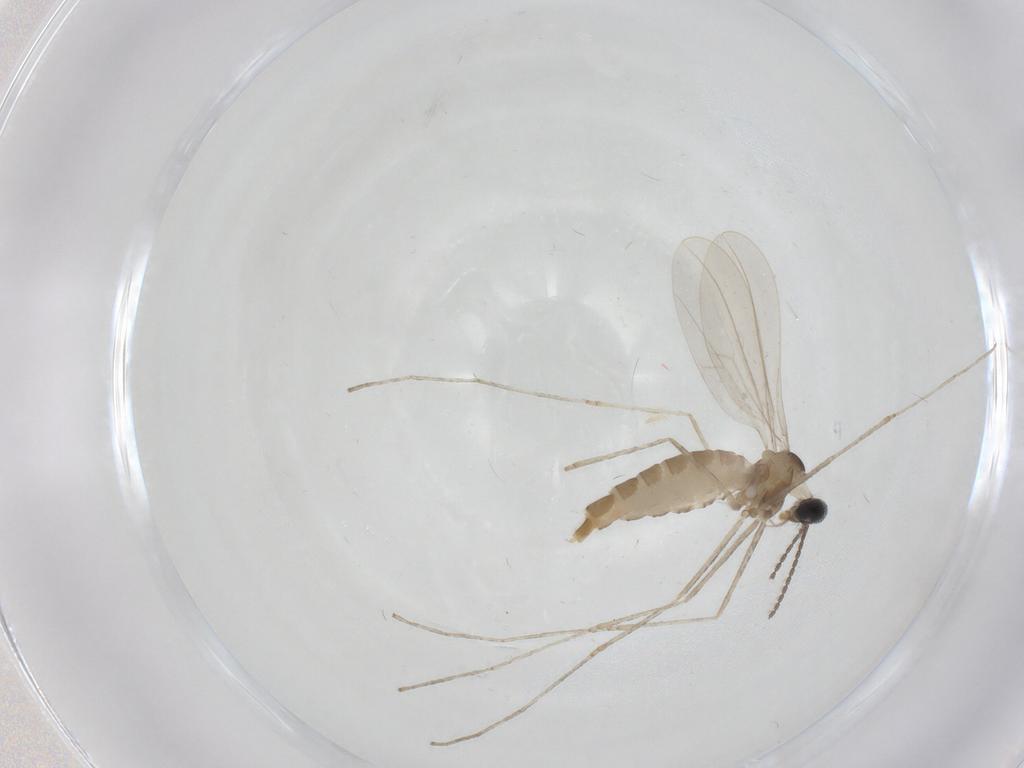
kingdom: Animalia
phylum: Arthropoda
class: Insecta
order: Diptera
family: Cecidomyiidae
